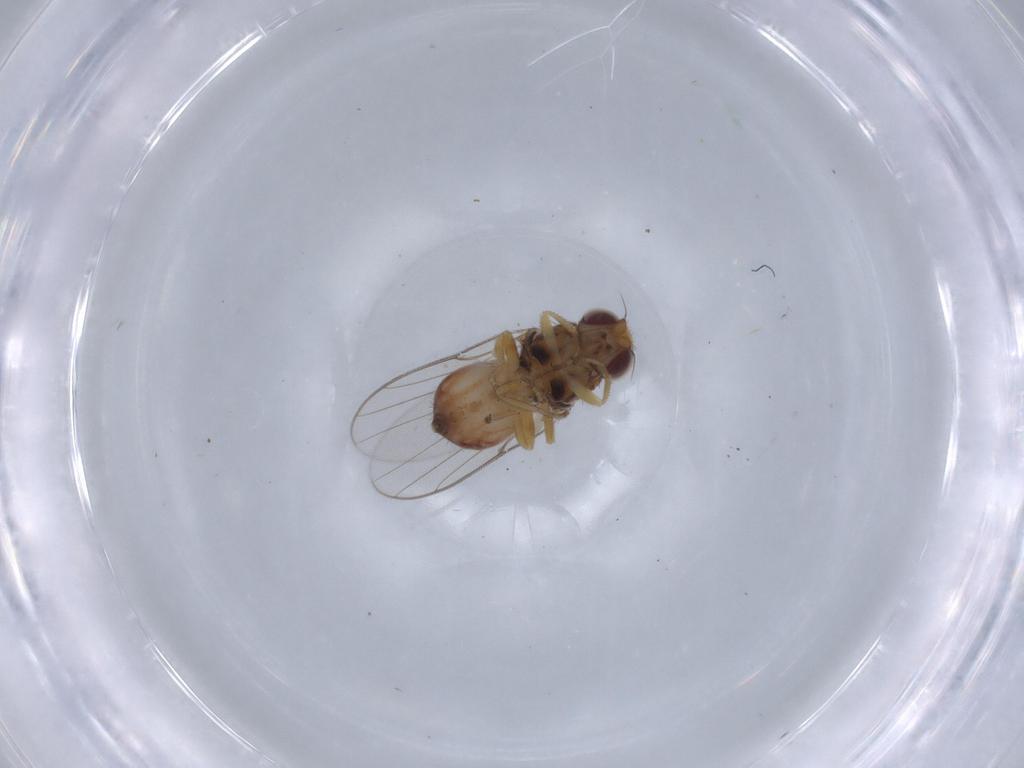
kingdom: Animalia
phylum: Arthropoda
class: Insecta
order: Diptera
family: Chloropidae
